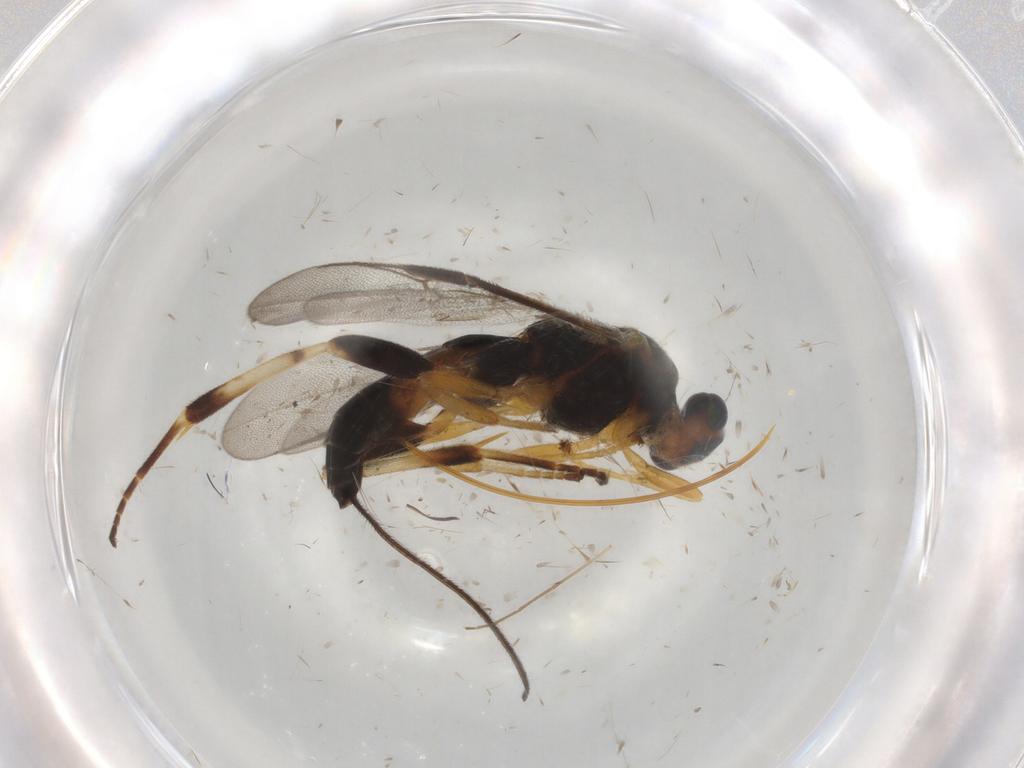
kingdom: Animalia
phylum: Arthropoda
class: Insecta
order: Hymenoptera
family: Braconidae
